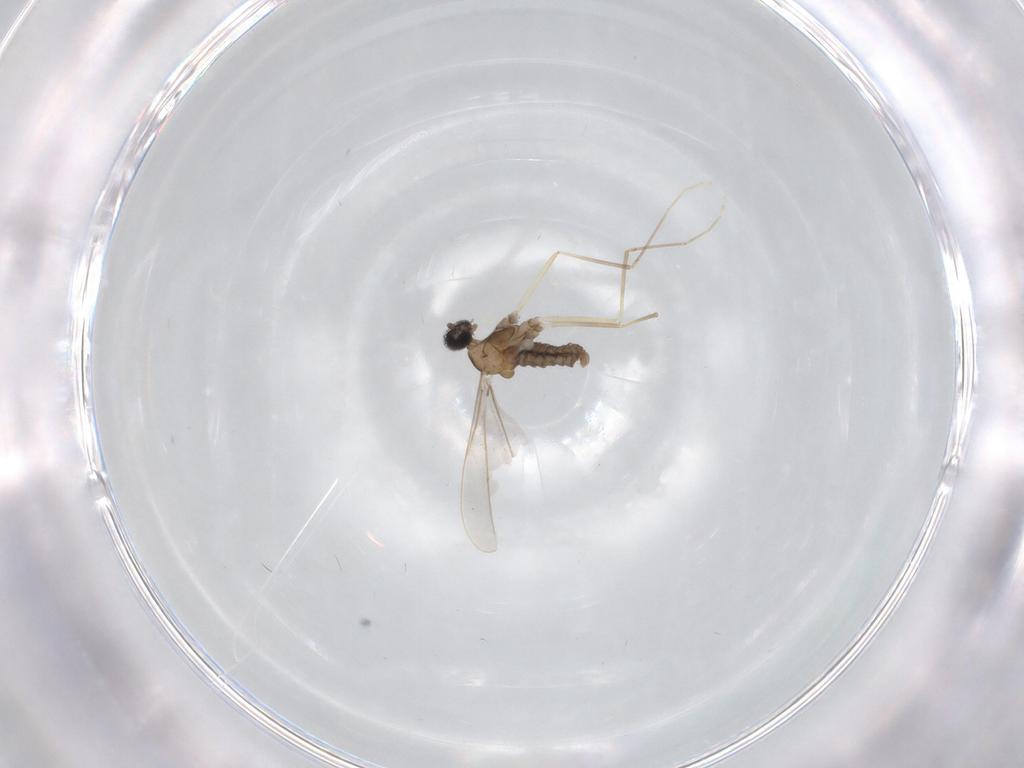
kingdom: Animalia
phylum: Arthropoda
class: Insecta
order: Diptera
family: Cecidomyiidae
